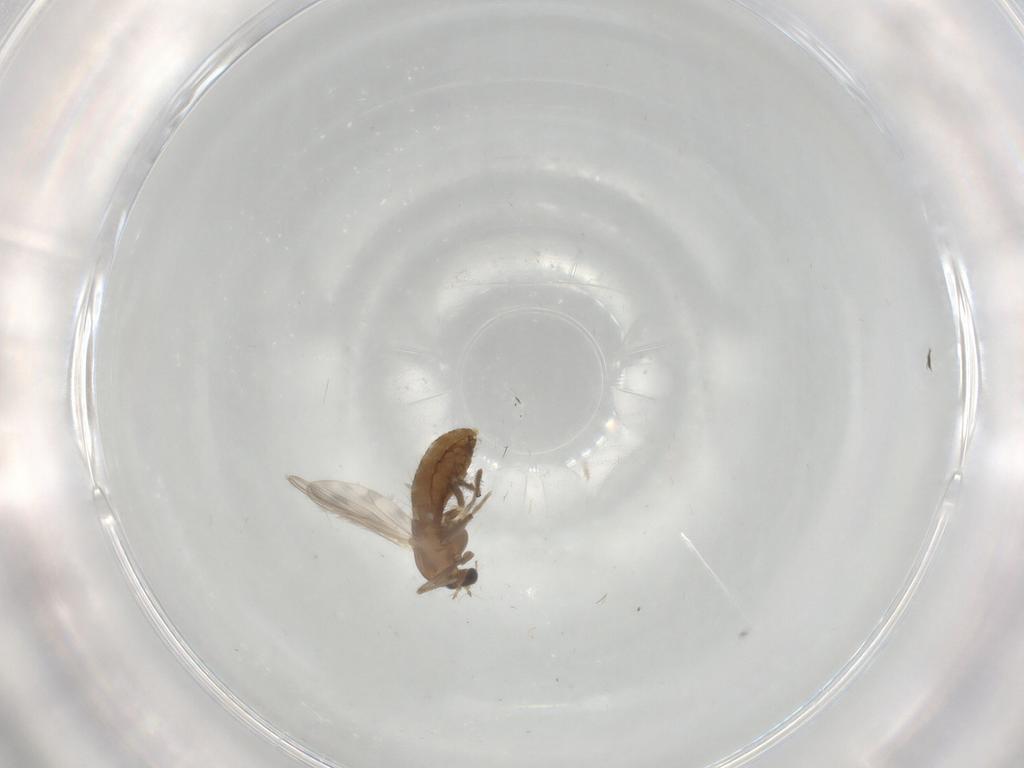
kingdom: Animalia
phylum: Arthropoda
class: Insecta
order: Diptera
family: Chironomidae
